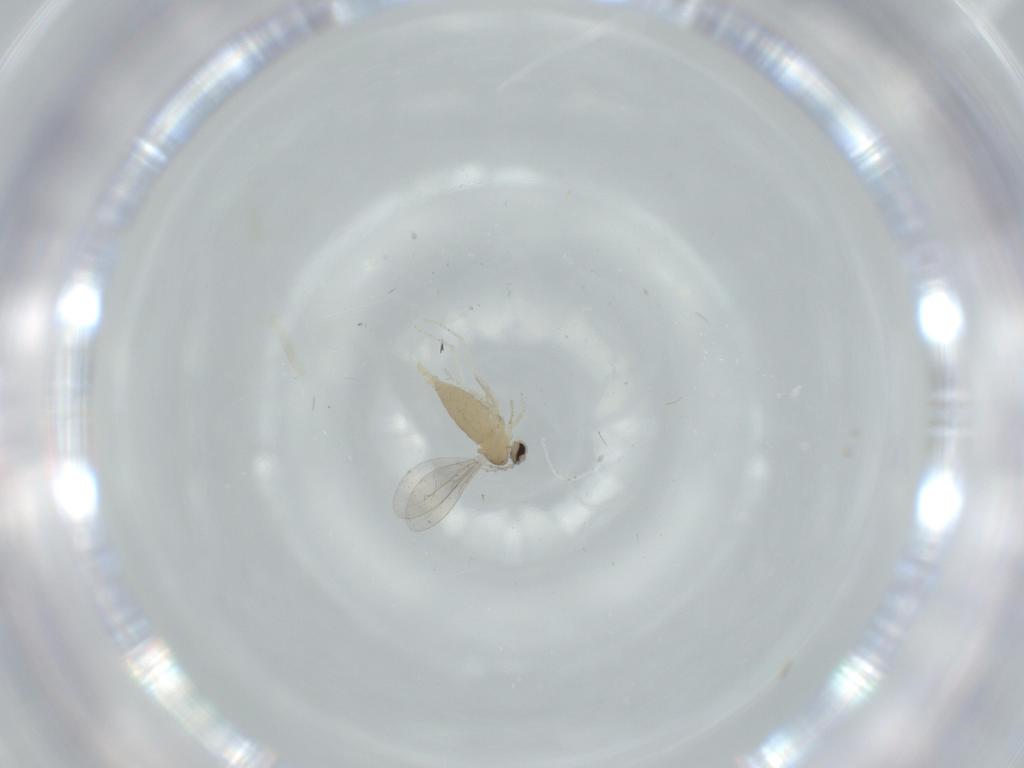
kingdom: Animalia
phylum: Arthropoda
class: Insecta
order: Diptera
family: Cecidomyiidae
